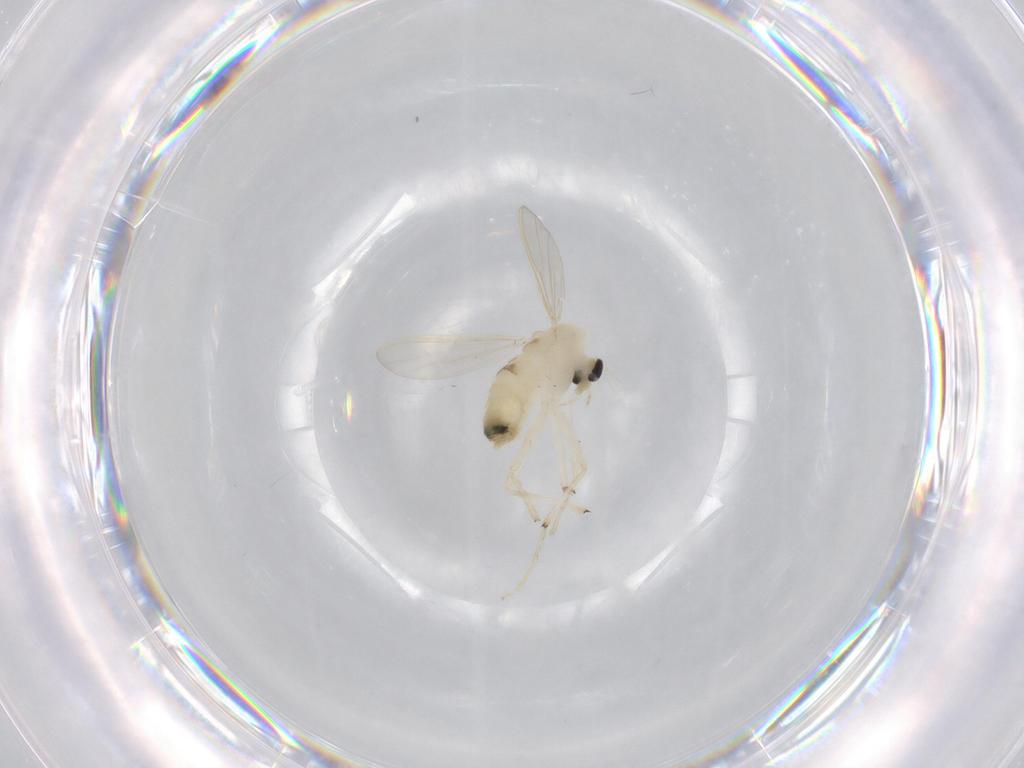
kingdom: Animalia
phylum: Arthropoda
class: Insecta
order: Diptera
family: Chironomidae
